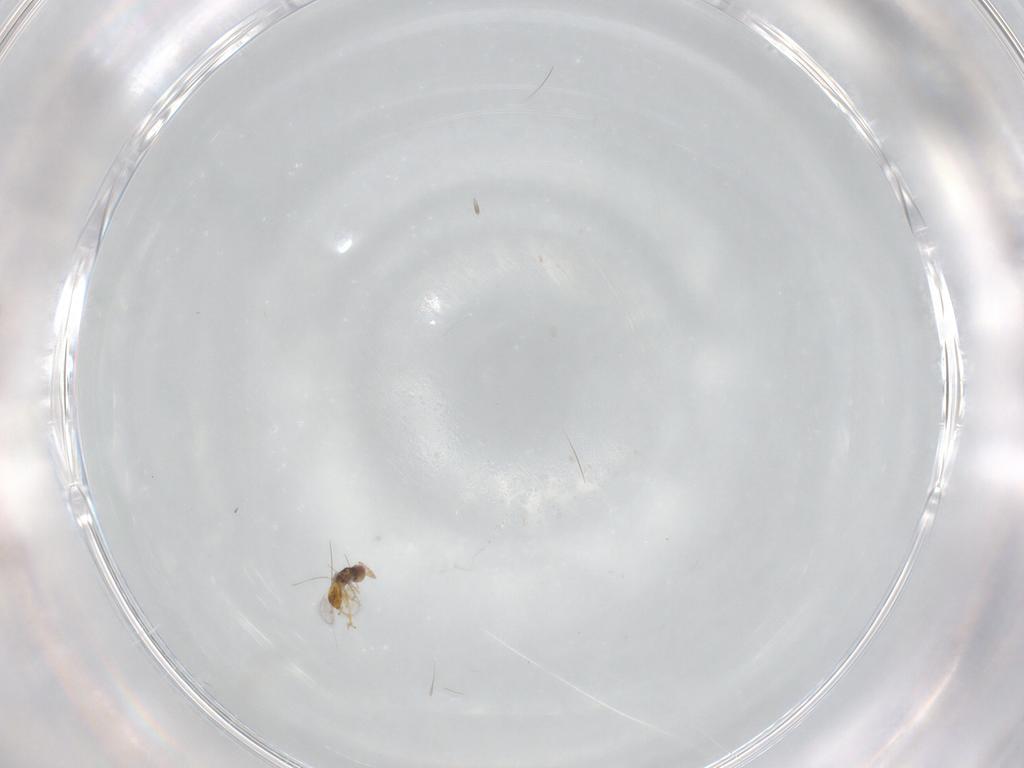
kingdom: Animalia
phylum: Arthropoda
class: Insecta
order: Hymenoptera
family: Eulophidae
